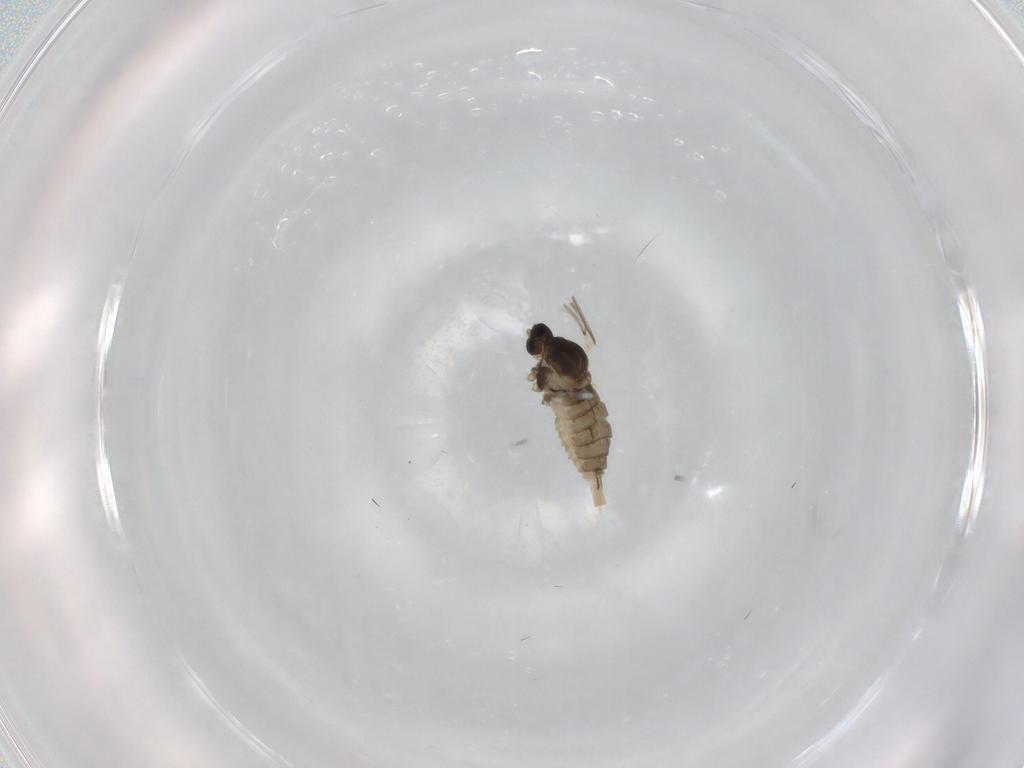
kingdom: Animalia
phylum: Arthropoda
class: Insecta
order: Diptera
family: Cecidomyiidae
